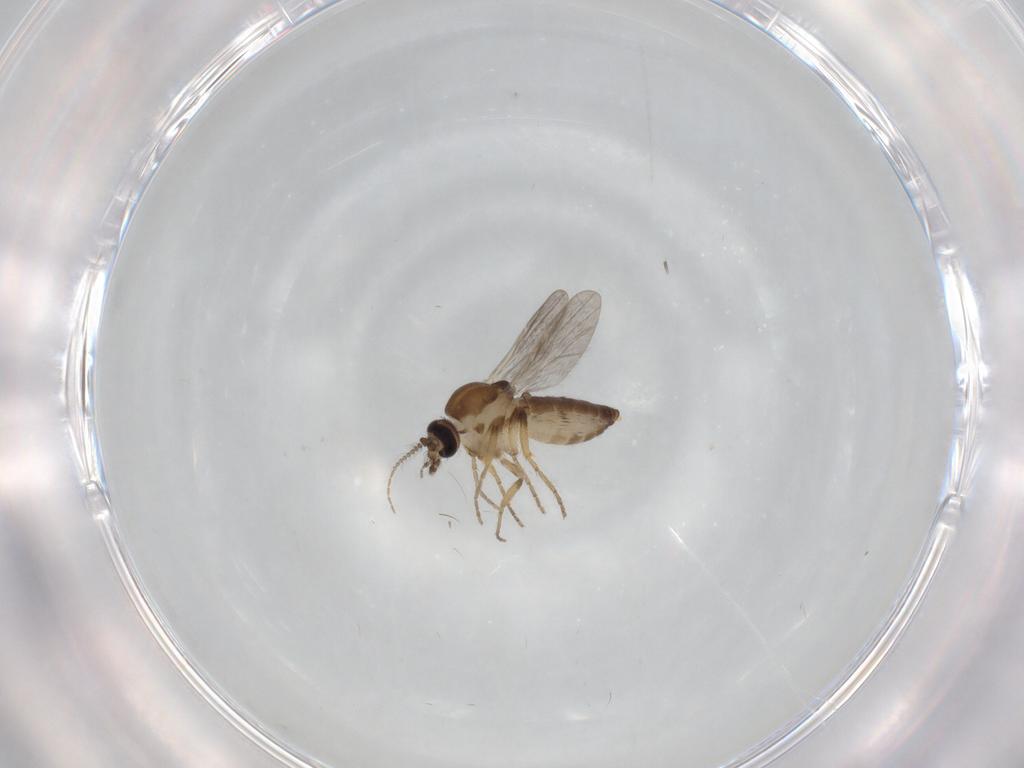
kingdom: Animalia
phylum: Arthropoda
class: Insecta
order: Diptera
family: Ceratopogonidae
